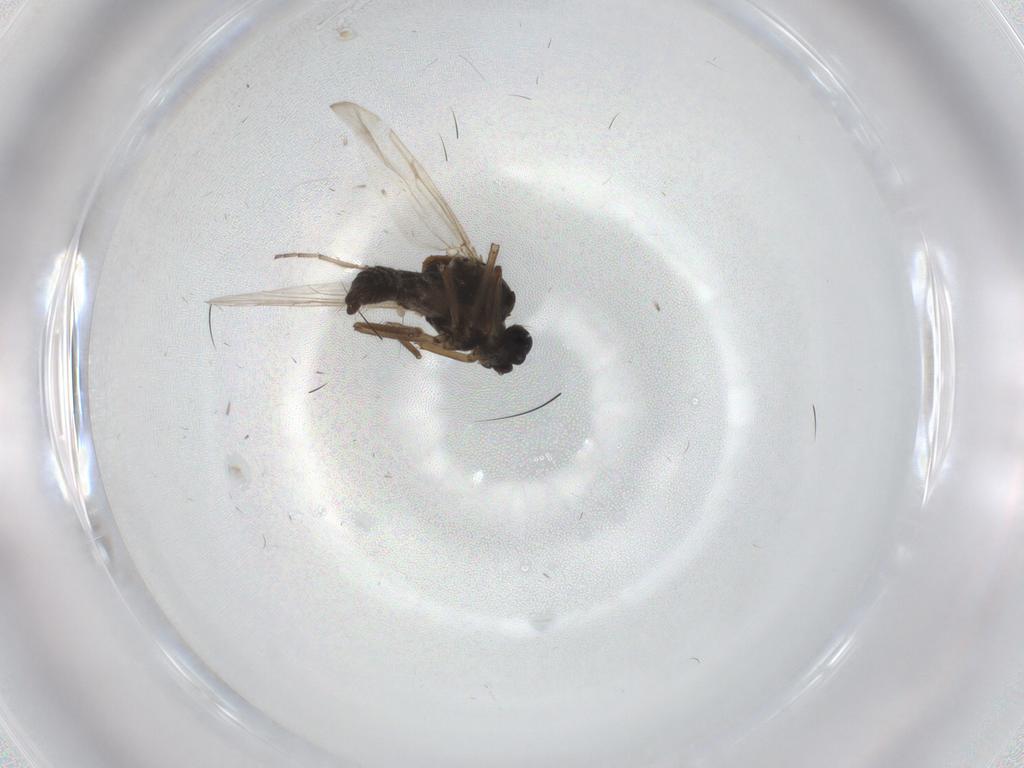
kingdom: Animalia
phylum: Arthropoda
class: Insecta
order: Diptera
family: Ceratopogonidae
